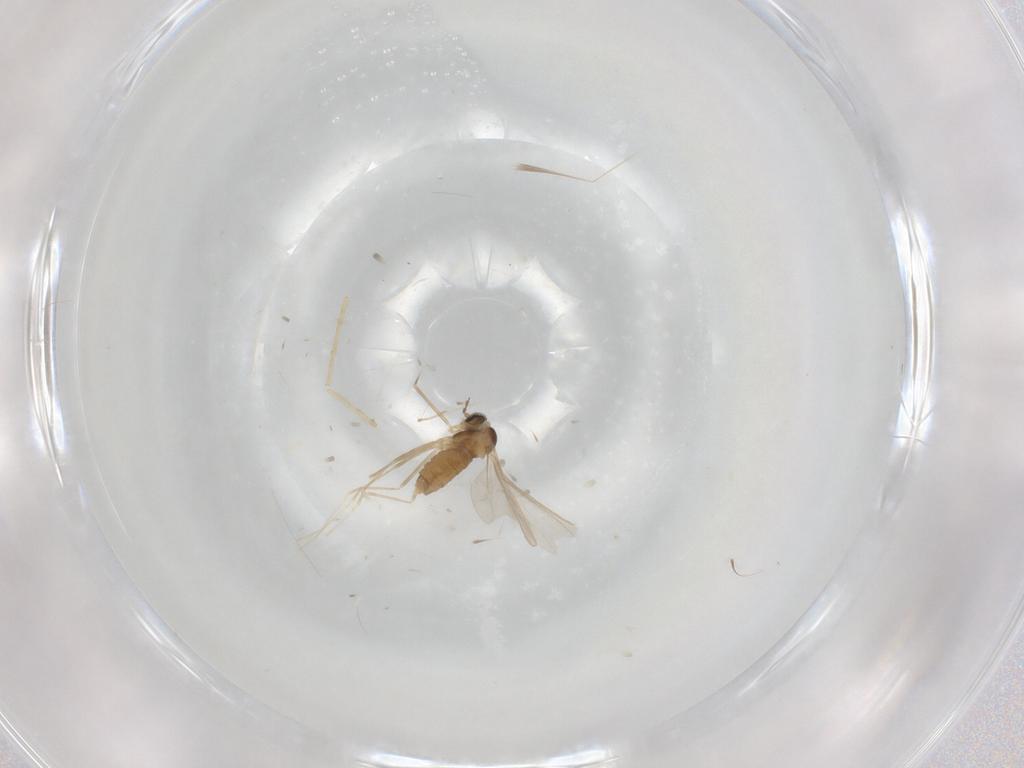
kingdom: Animalia
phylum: Arthropoda
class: Insecta
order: Diptera
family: Cecidomyiidae
